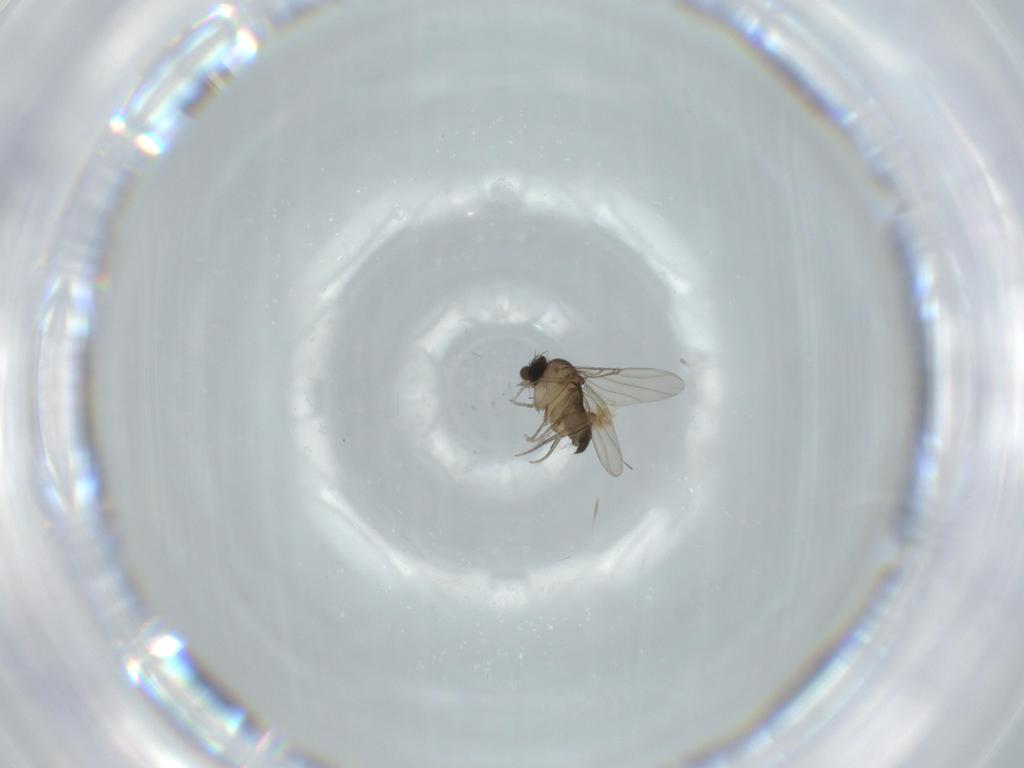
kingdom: Animalia
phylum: Arthropoda
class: Insecta
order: Diptera
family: Phoridae
